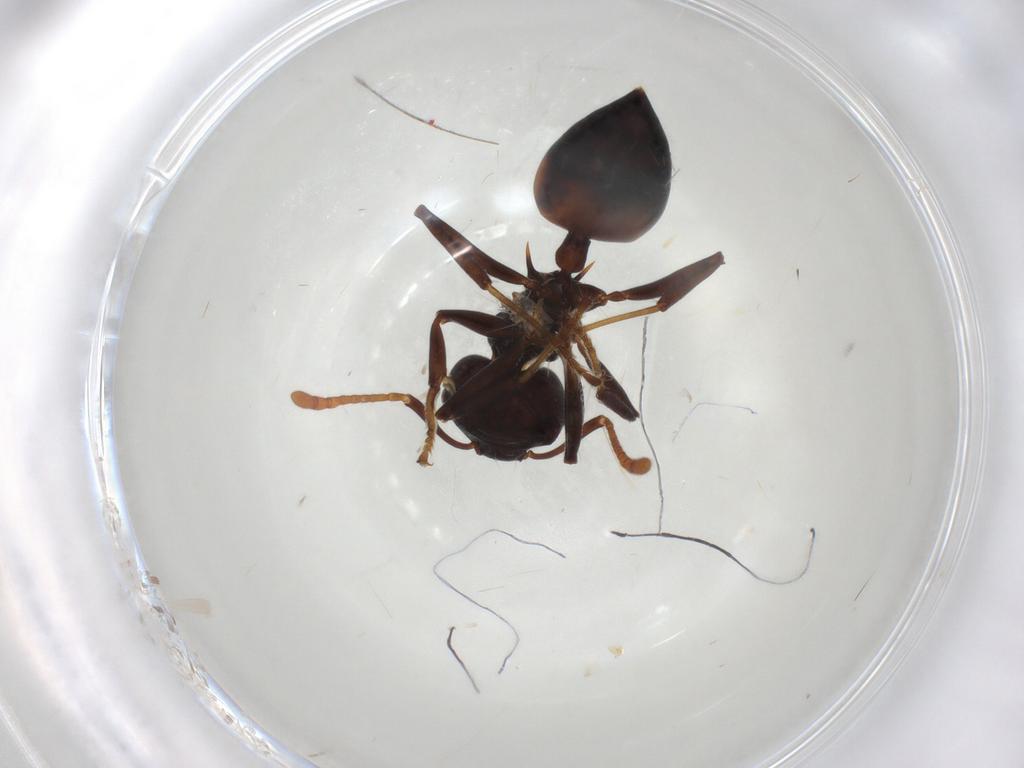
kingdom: Animalia
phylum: Arthropoda
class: Insecta
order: Hymenoptera
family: Formicidae
